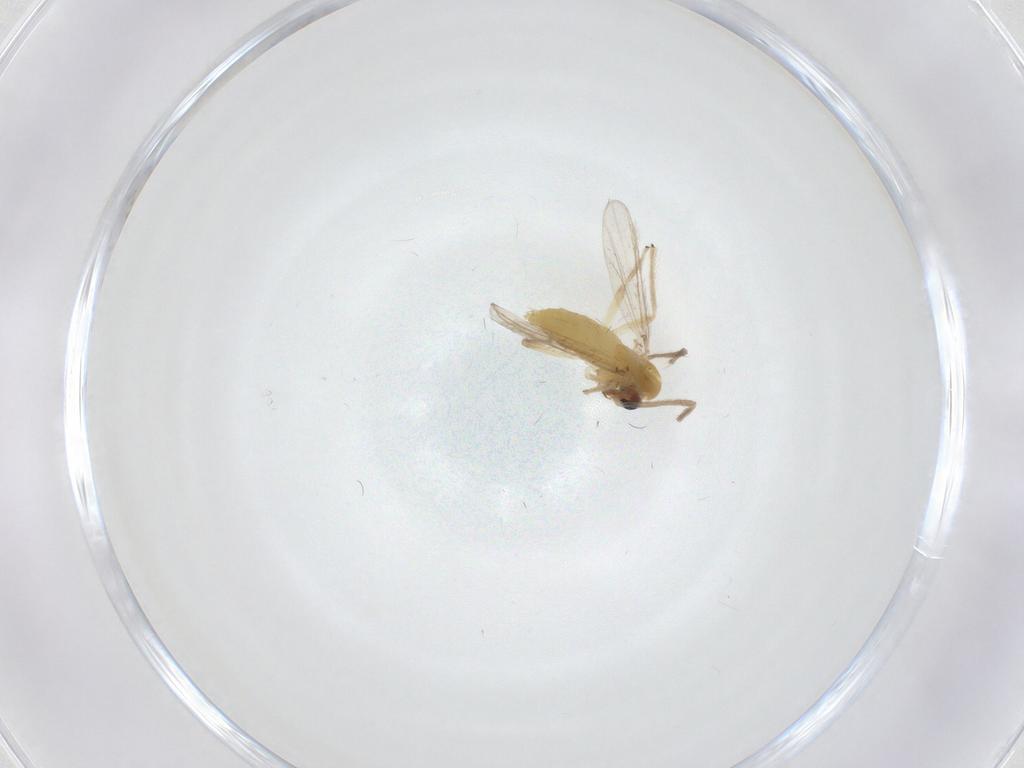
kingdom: Animalia
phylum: Arthropoda
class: Insecta
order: Diptera
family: Chironomidae
